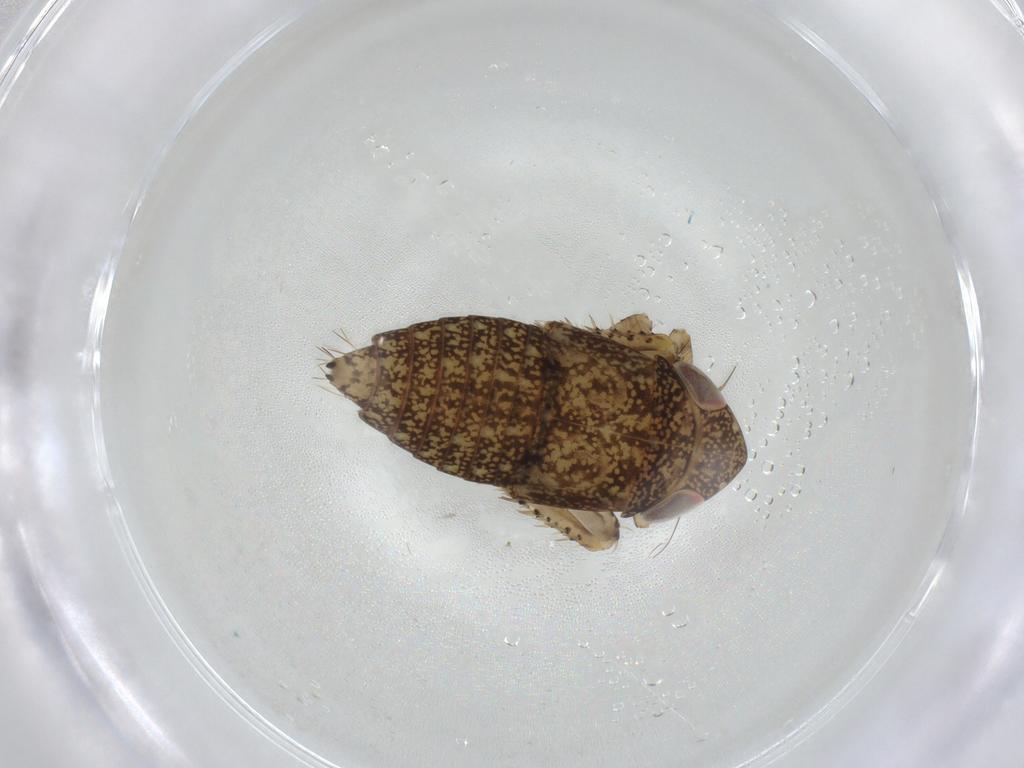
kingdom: Animalia
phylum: Arthropoda
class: Insecta
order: Hemiptera
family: Cicadellidae
